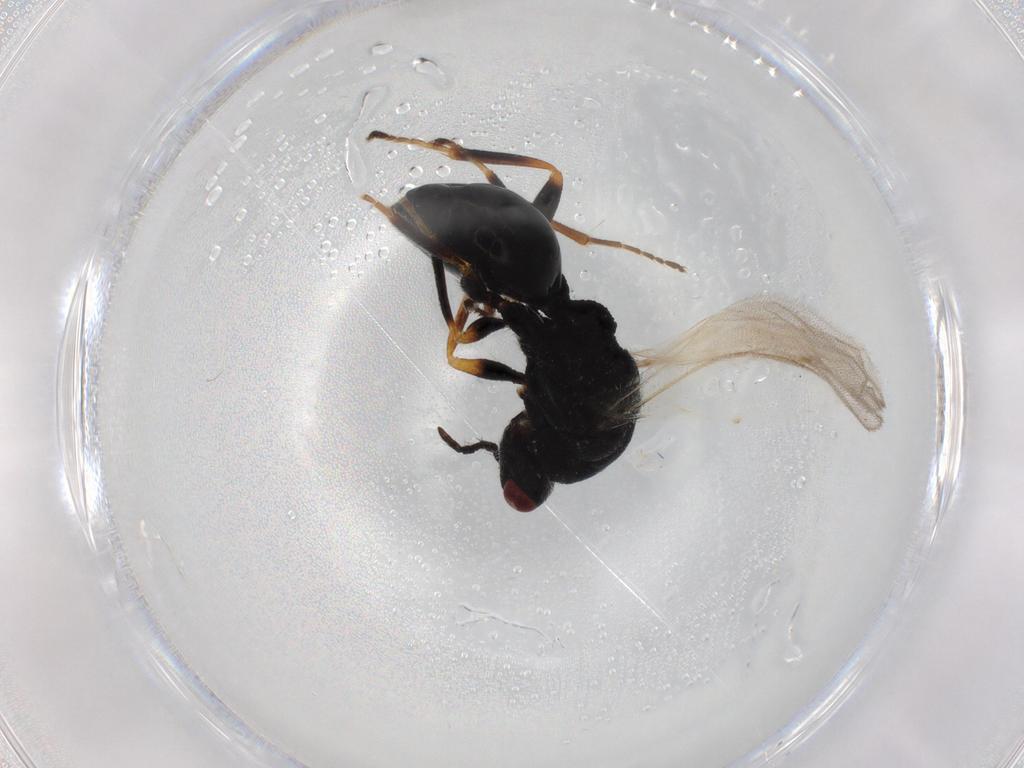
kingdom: Animalia
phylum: Arthropoda
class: Insecta
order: Hymenoptera
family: Eurytomidae
